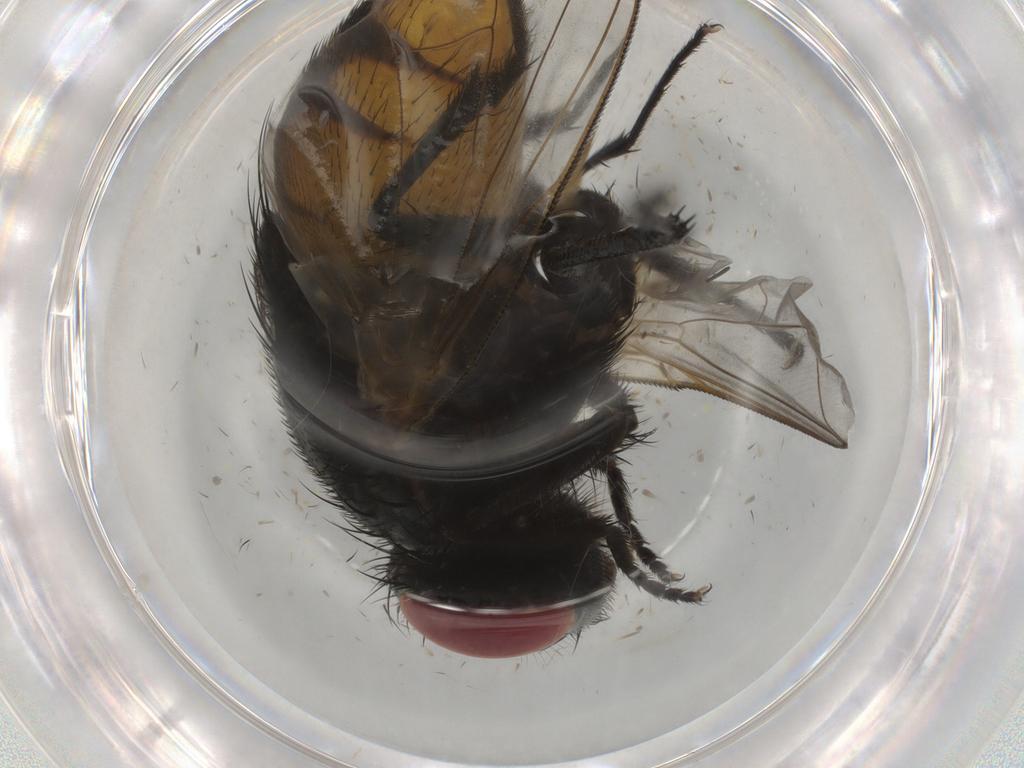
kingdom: Animalia
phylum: Arthropoda
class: Insecta
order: Diptera
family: Muscidae
